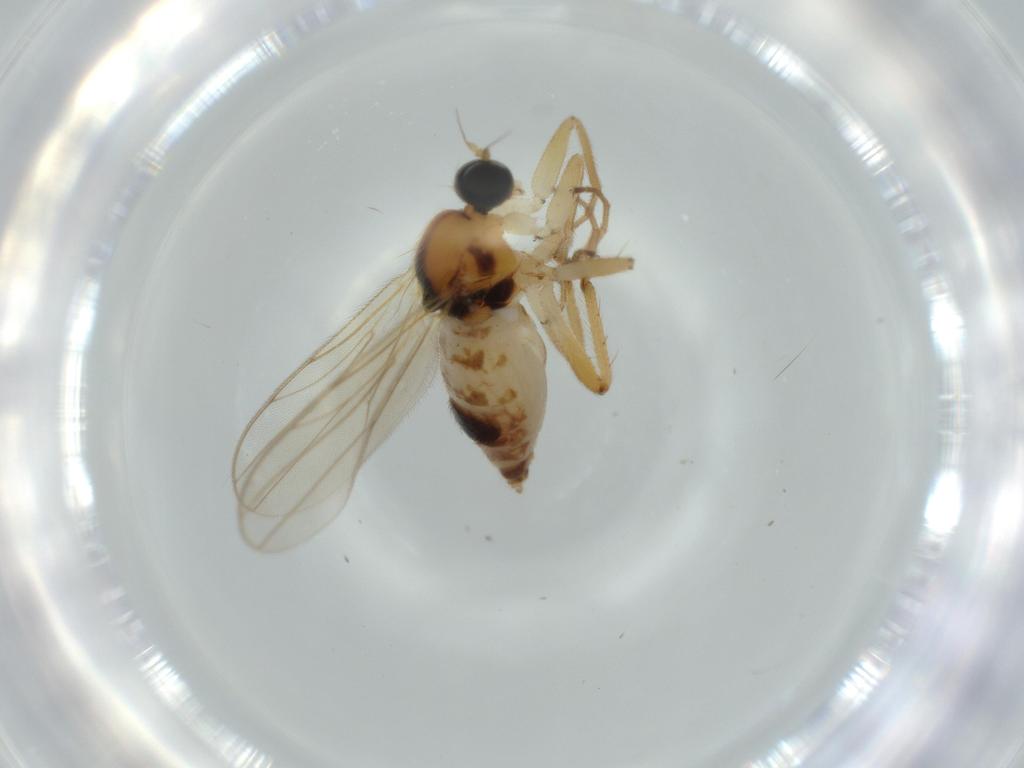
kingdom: Animalia
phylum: Arthropoda
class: Insecta
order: Diptera
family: Hybotidae
